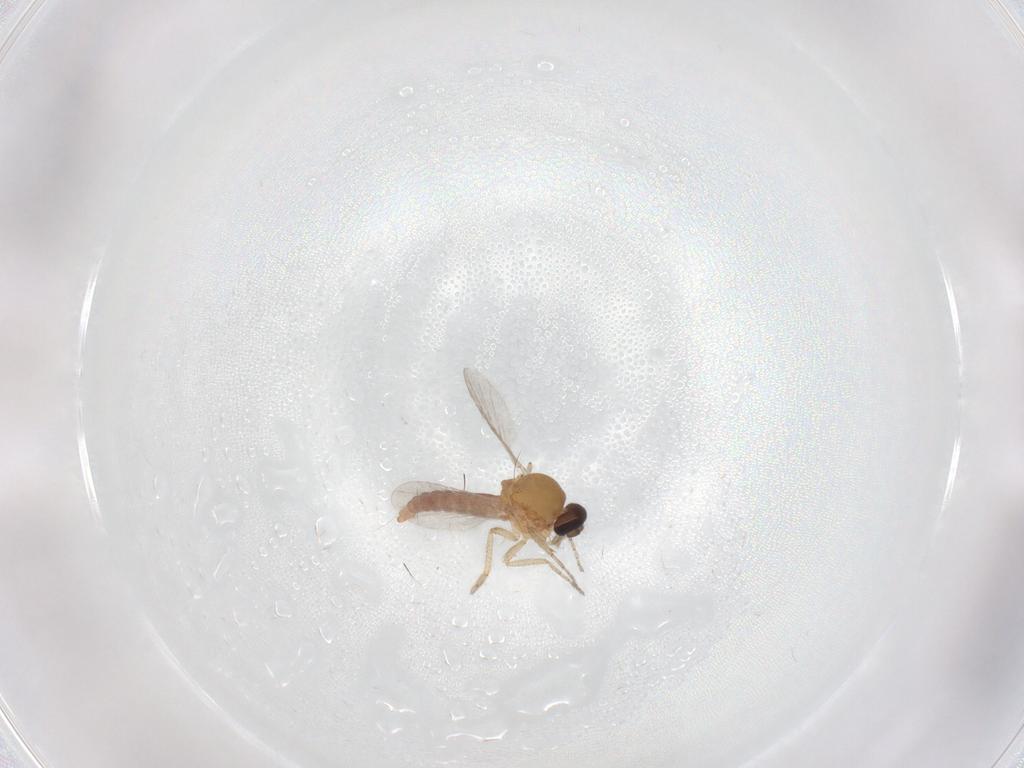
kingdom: Animalia
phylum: Arthropoda
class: Insecta
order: Diptera
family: Ceratopogonidae
